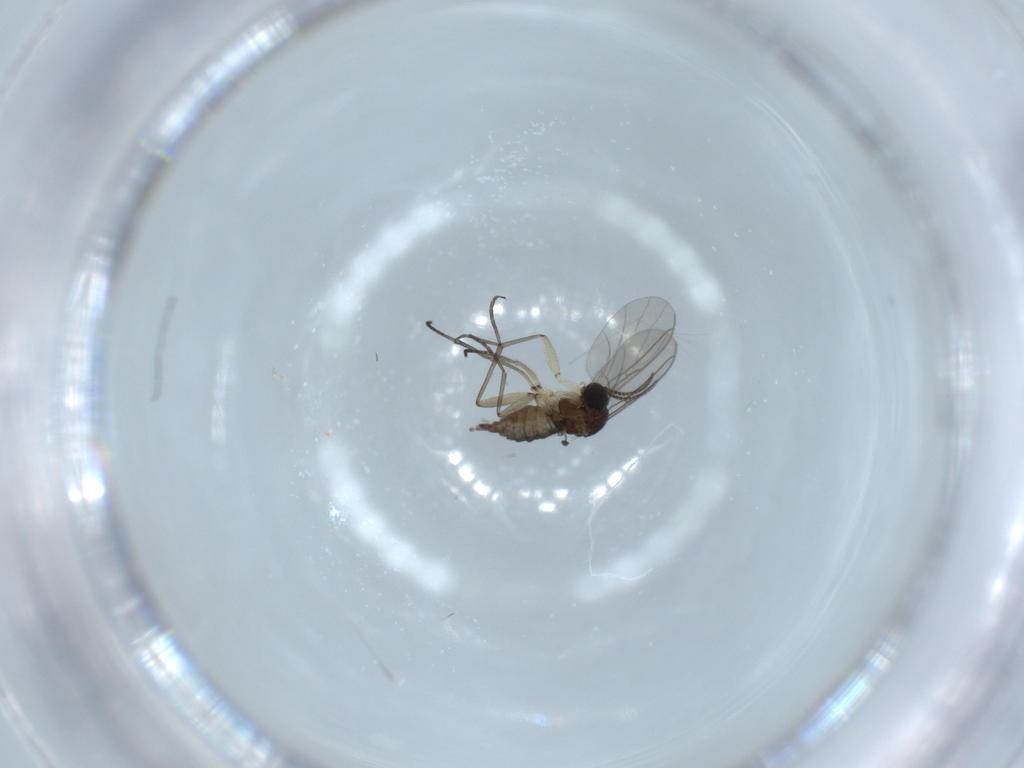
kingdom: Animalia
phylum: Arthropoda
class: Insecta
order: Diptera
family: Sciaridae
